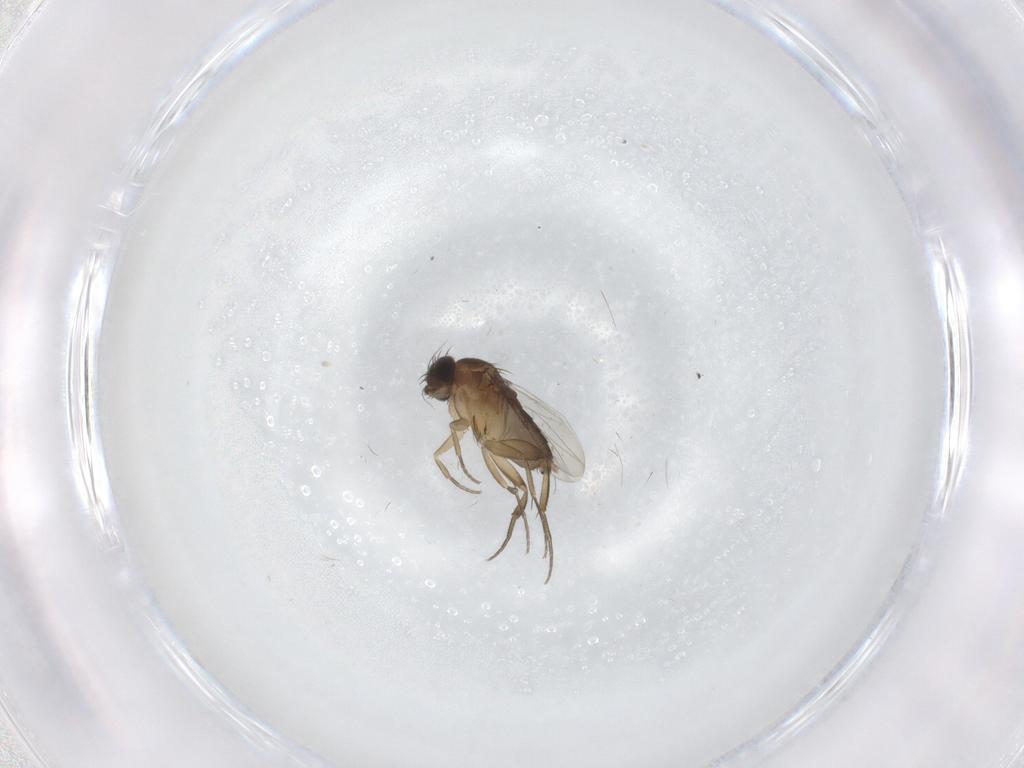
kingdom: Animalia
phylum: Arthropoda
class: Insecta
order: Diptera
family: Phoridae
